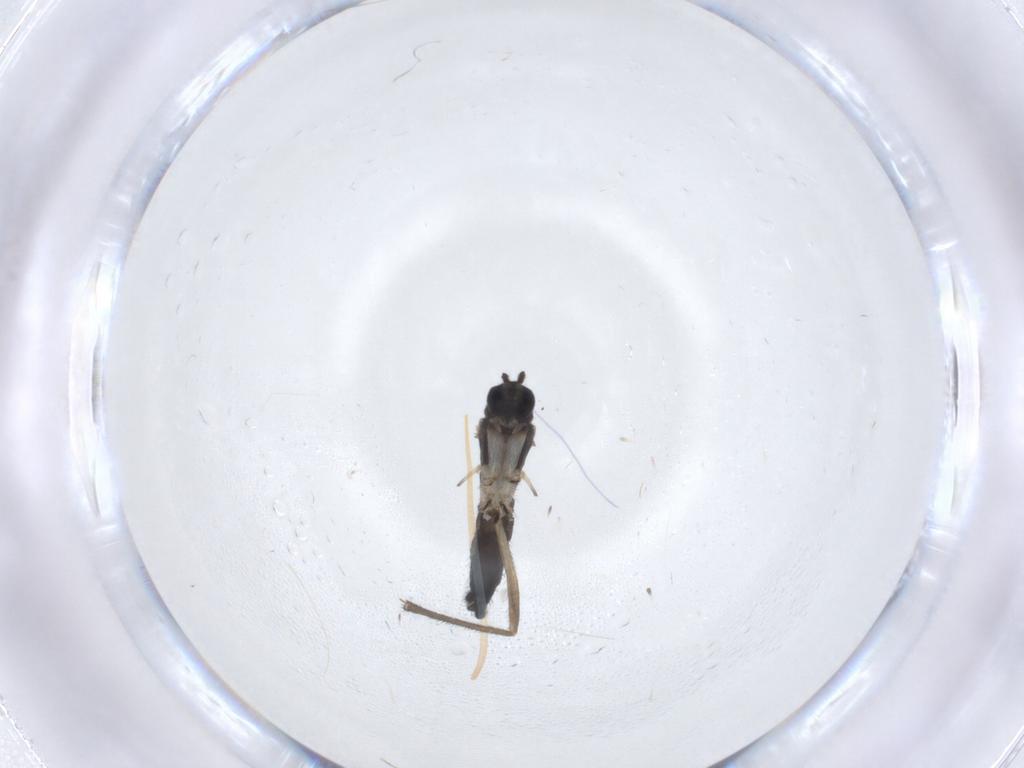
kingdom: Animalia
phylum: Arthropoda
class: Insecta
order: Diptera
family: Sciaridae
